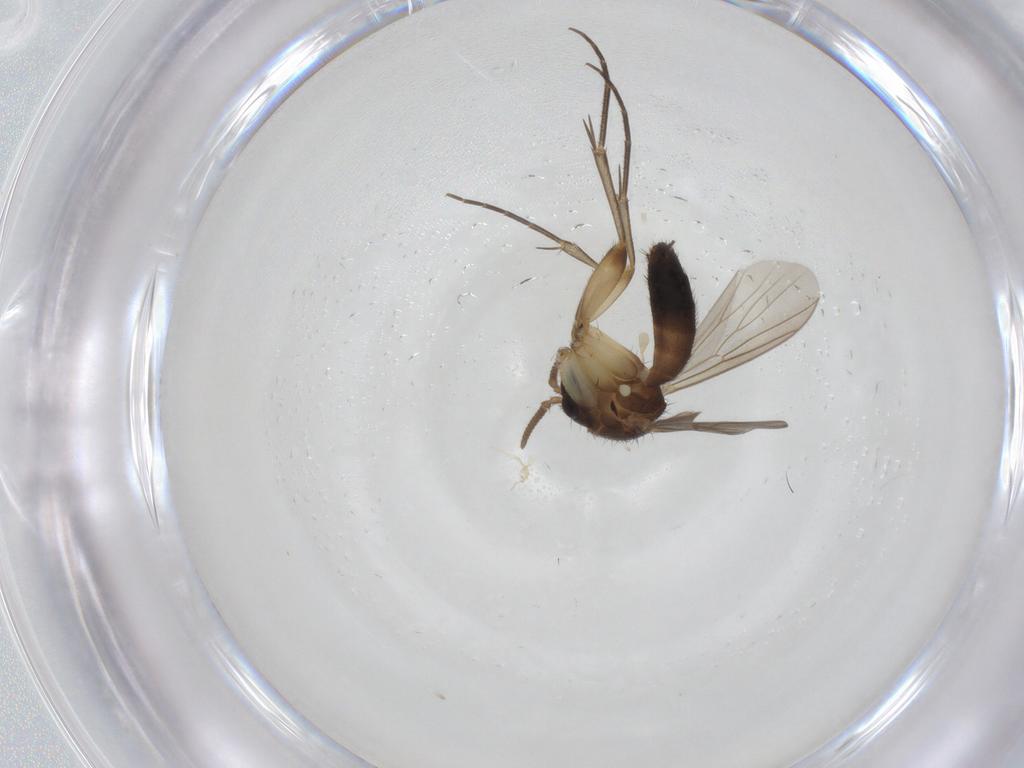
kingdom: Animalia
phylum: Arthropoda
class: Insecta
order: Diptera
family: Mycetophilidae
